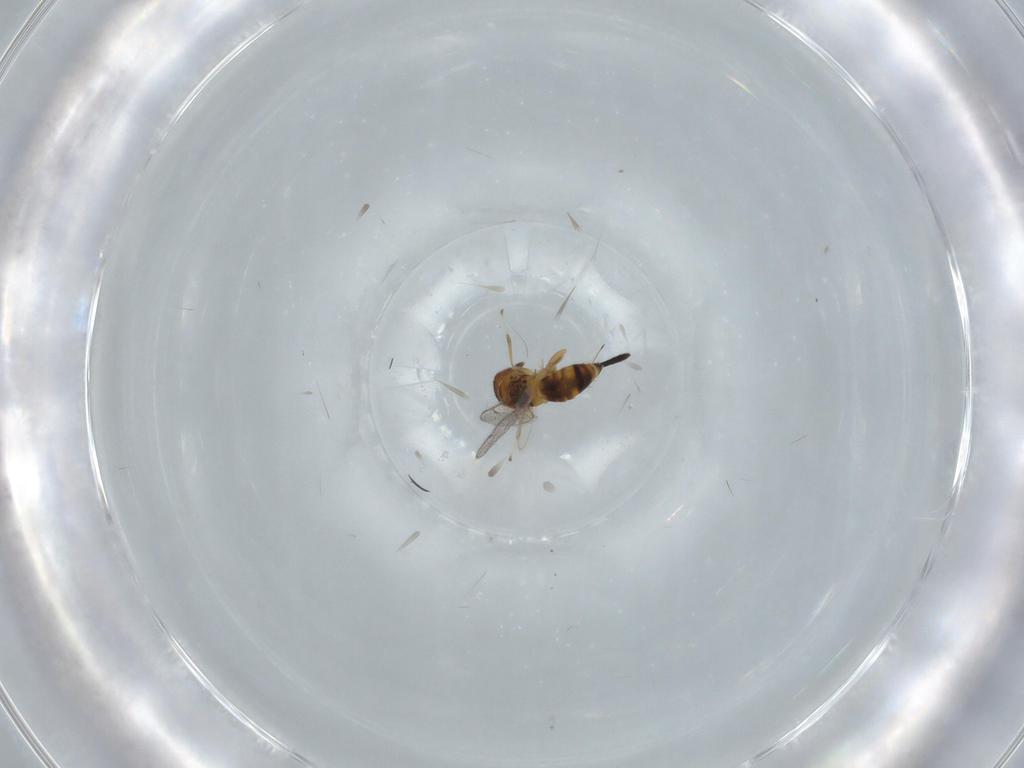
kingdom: Animalia
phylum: Arthropoda
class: Insecta
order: Hymenoptera
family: Torymidae
